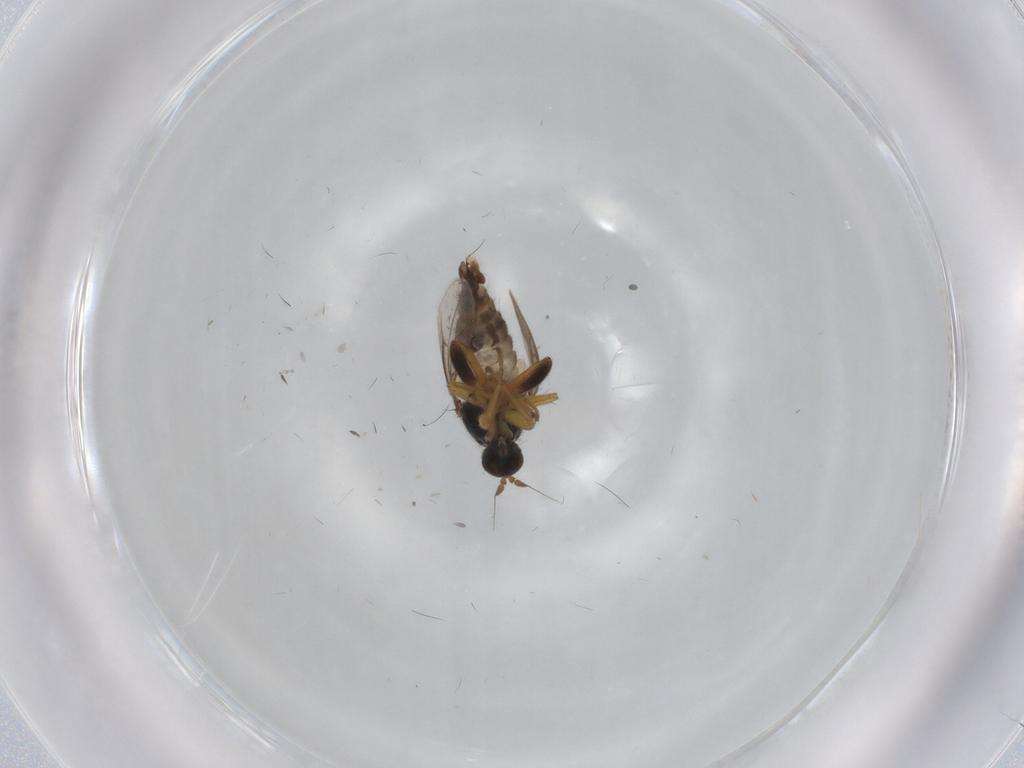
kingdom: Animalia
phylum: Arthropoda
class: Insecta
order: Diptera
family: Hybotidae
